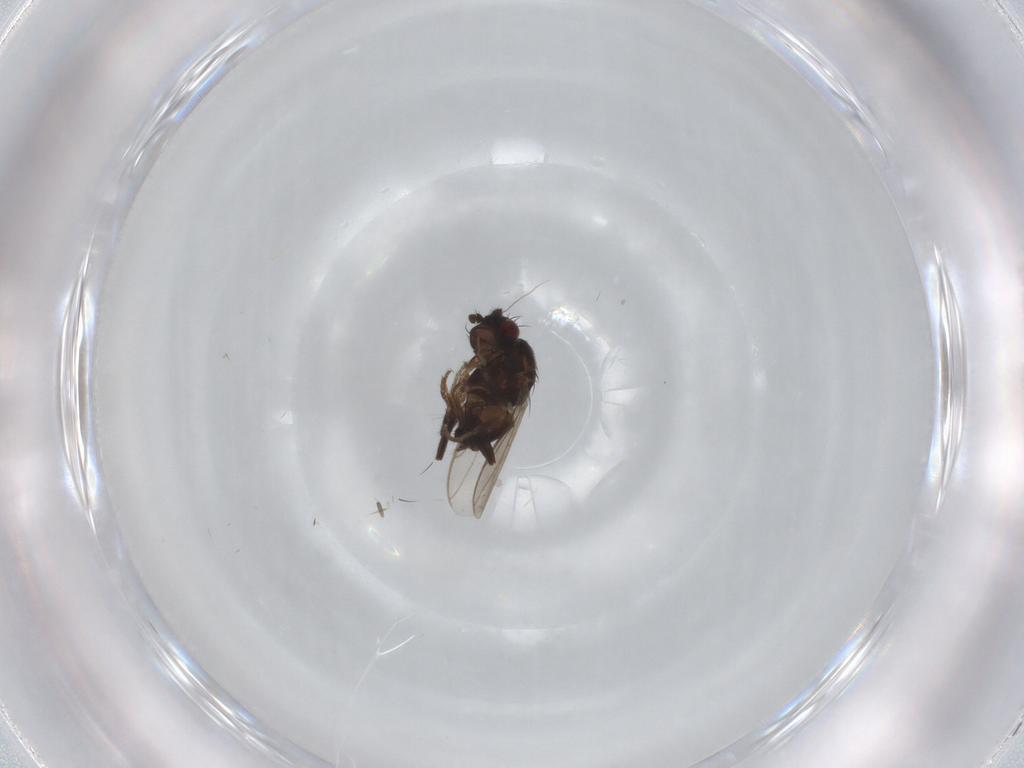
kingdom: Animalia
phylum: Arthropoda
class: Insecta
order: Diptera
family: Sphaeroceridae
